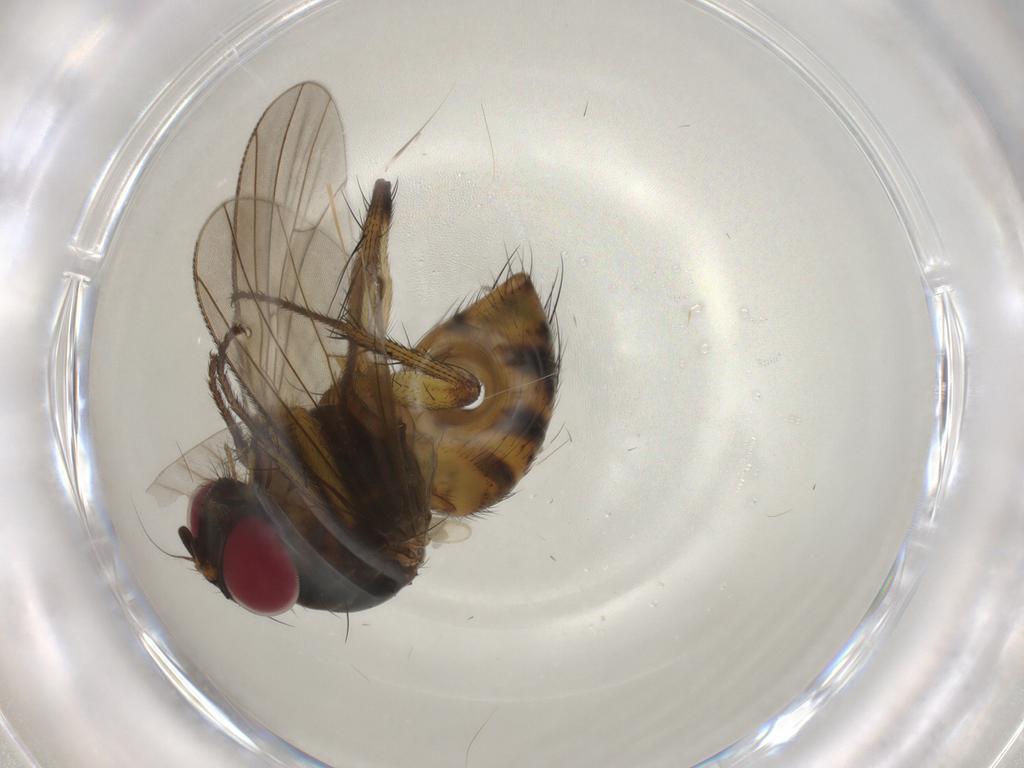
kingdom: Animalia
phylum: Arthropoda
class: Insecta
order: Diptera
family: Muscidae
